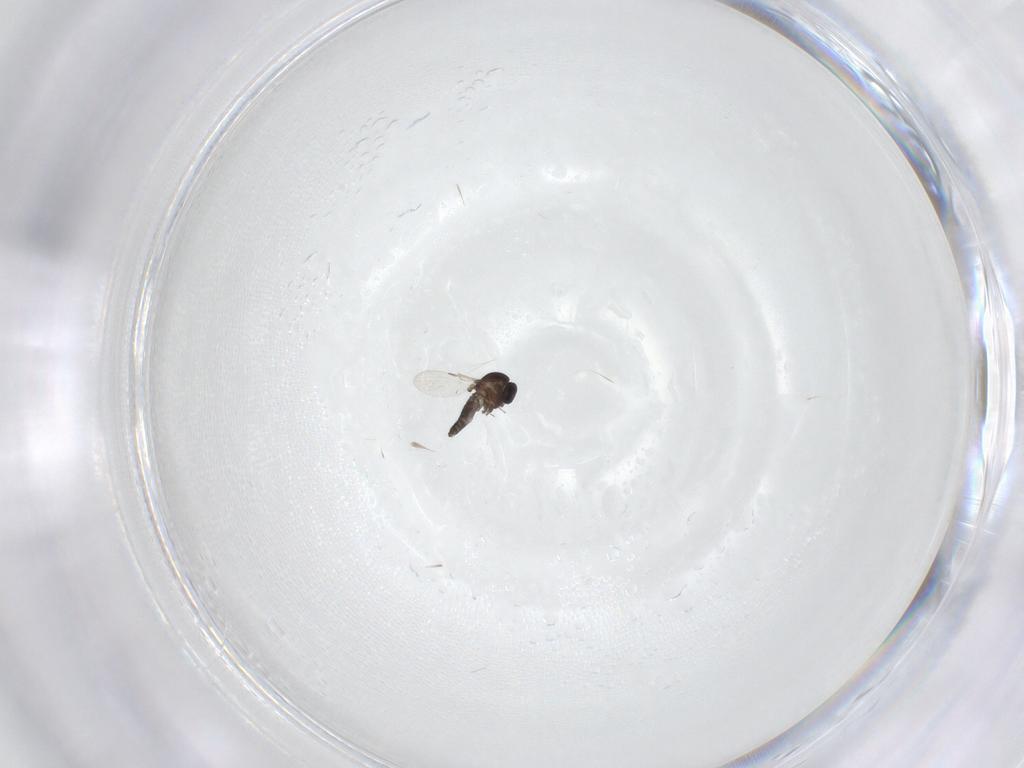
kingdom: Animalia
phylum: Arthropoda
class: Insecta
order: Diptera
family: Ceratopogonidae
